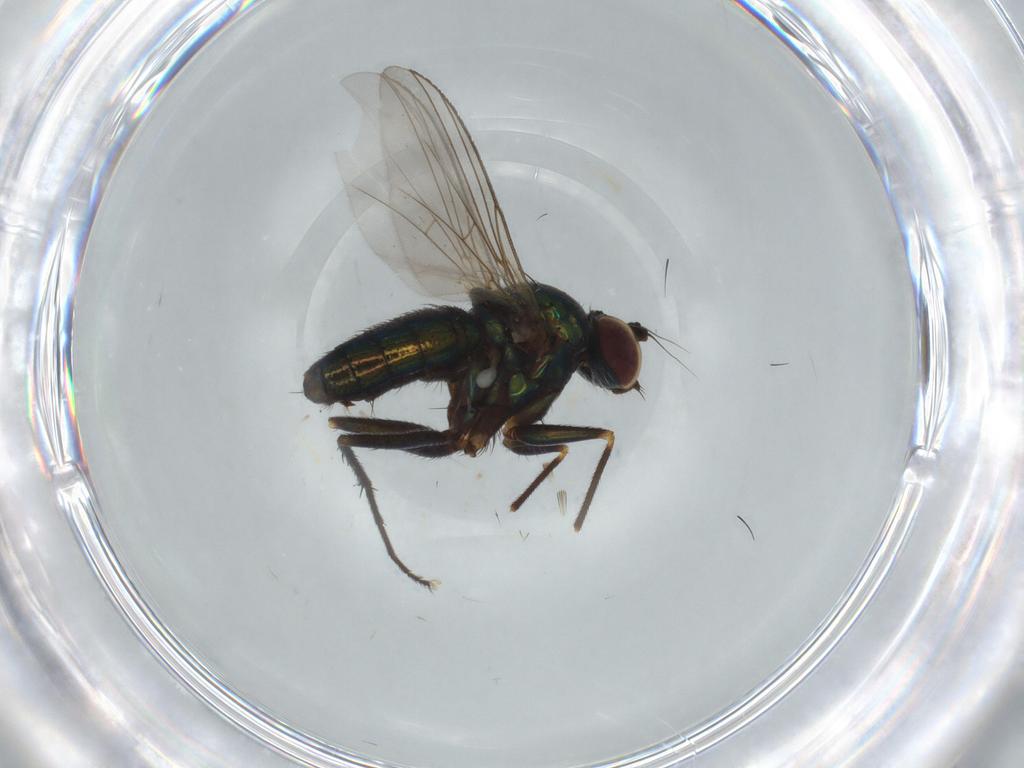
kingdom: Animalia
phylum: Arthropoda
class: Insecta
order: Diptera
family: Dolichopodidae
